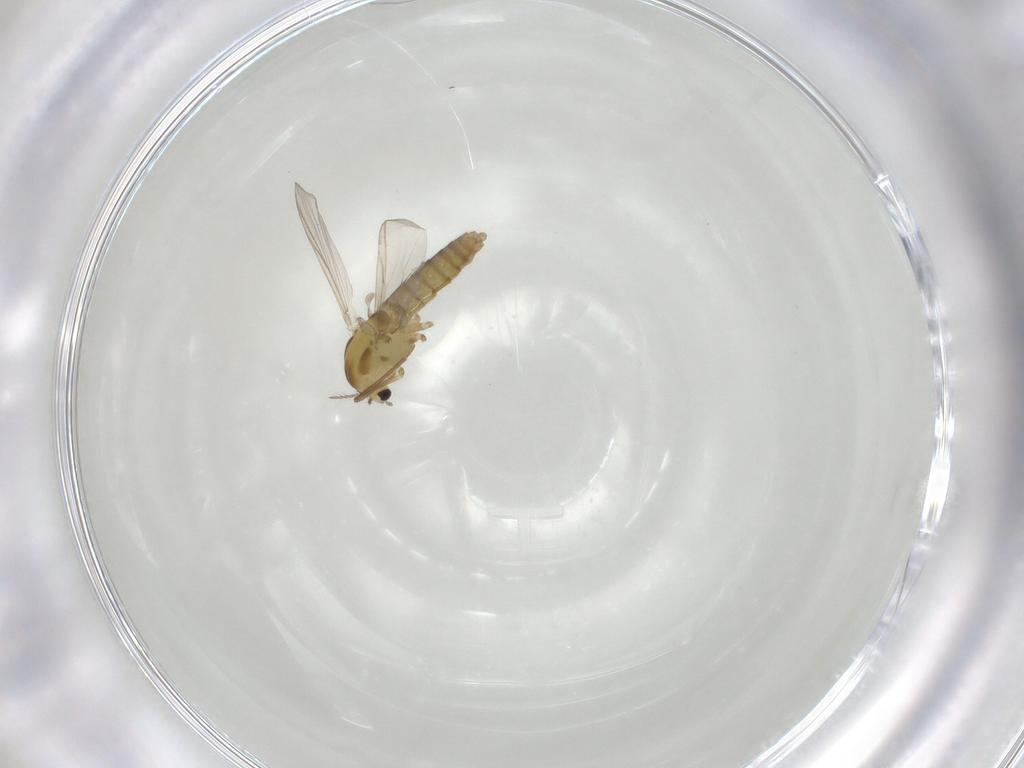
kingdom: Animalia
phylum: Arthropoda
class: Insecta
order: Diptera
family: Chironomidae
